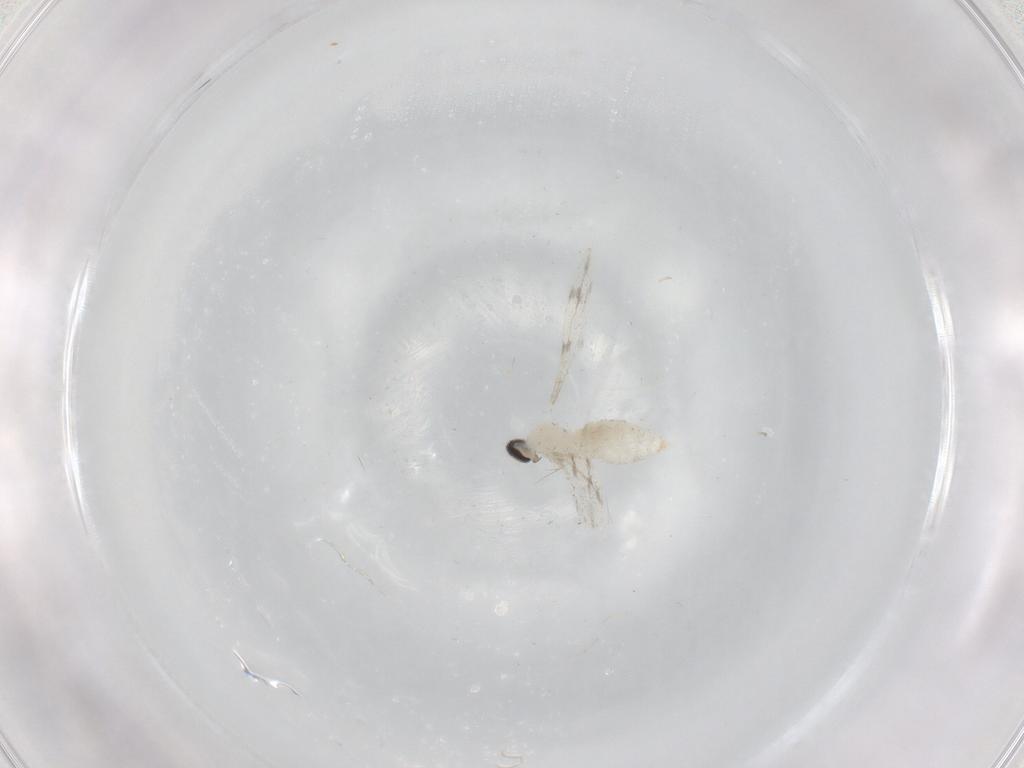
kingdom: Animalia
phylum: Arthropoda
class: Insecta
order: Diptera
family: Cecidomyiidae
